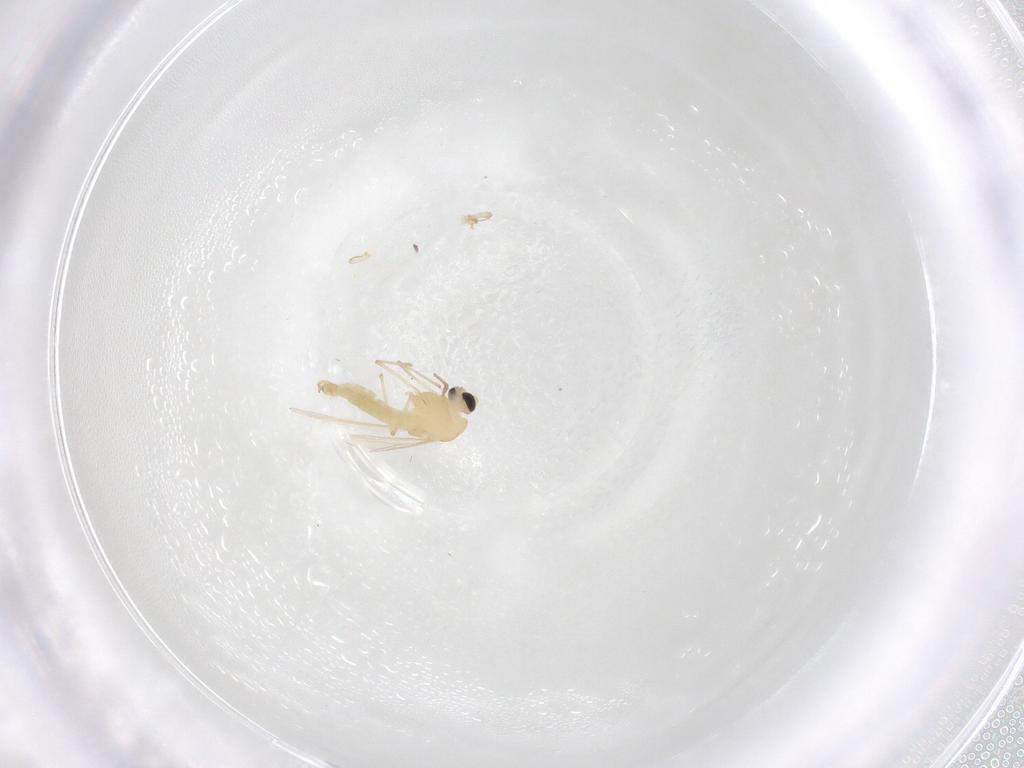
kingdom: Animalia
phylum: Arthropoda
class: Insecta
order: Diptera
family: Chironomidae
